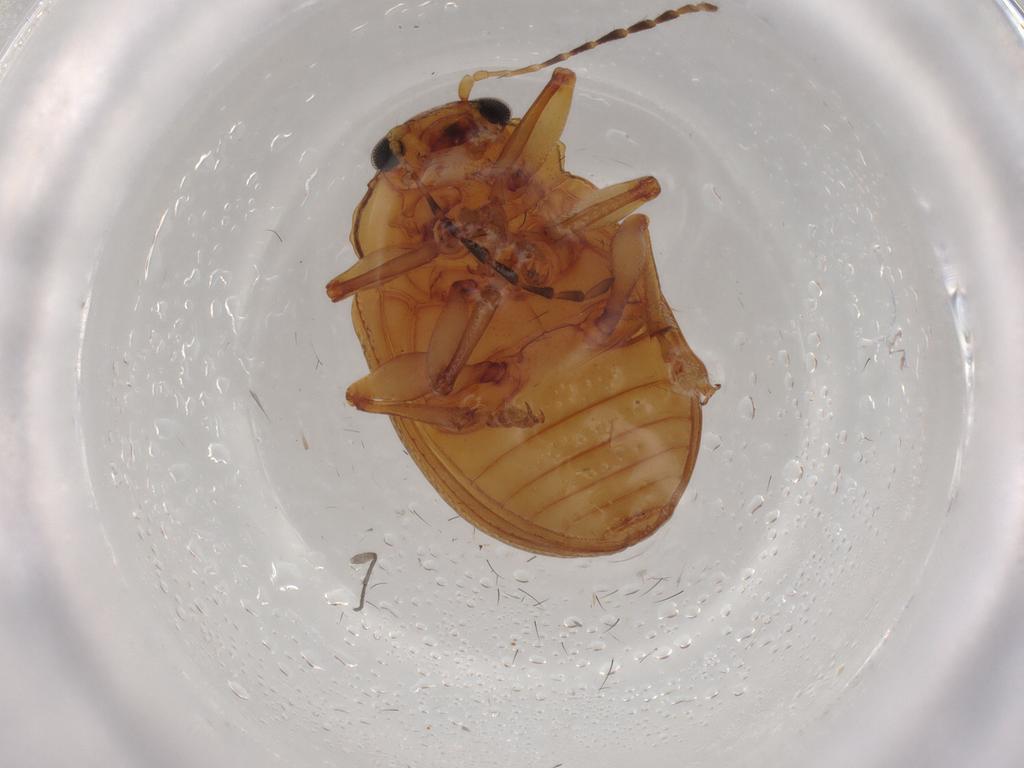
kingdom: Animalia
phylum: Arthropoda
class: Insecta
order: Coleoptera
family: Chrysomelidae
